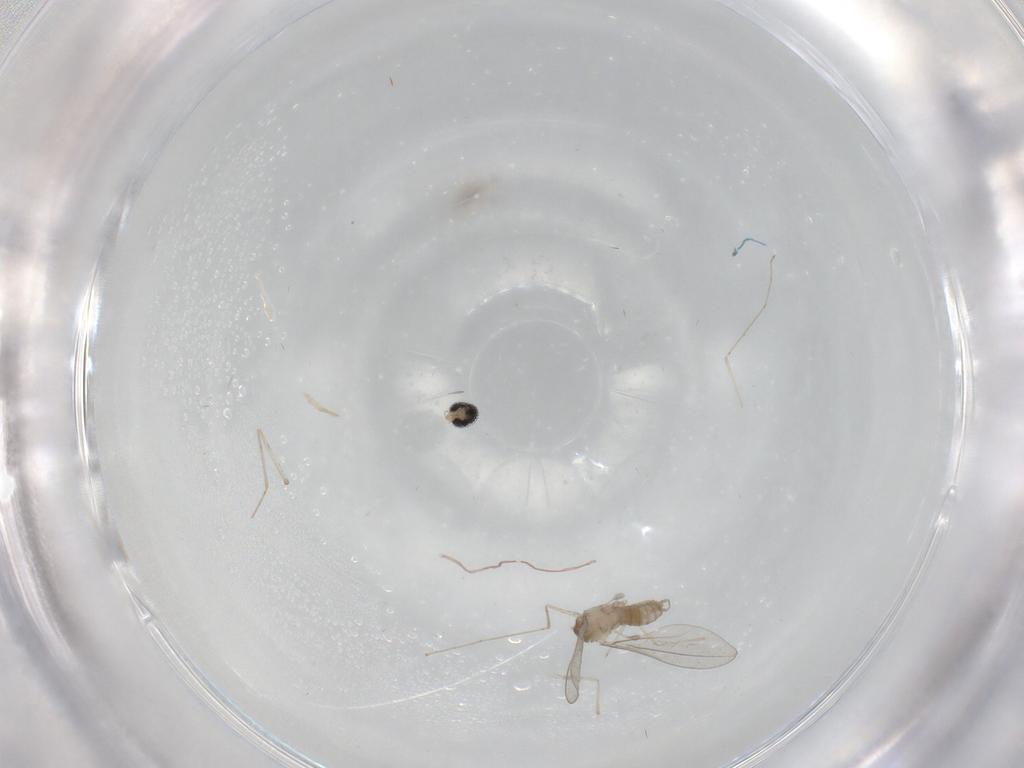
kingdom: Animalia
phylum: Arthropoda
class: Insecta
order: Diptera
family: Cecidomyiidae
